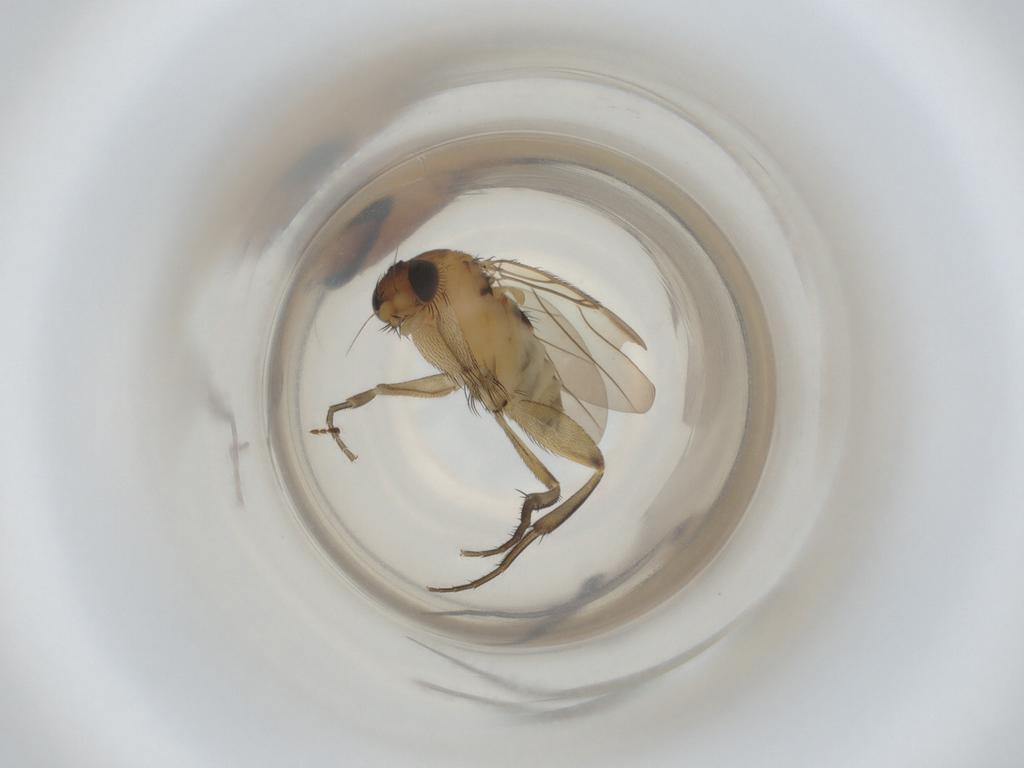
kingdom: Animalia
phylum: Arthropoda
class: Insecta
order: Diptera
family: Phoridae
